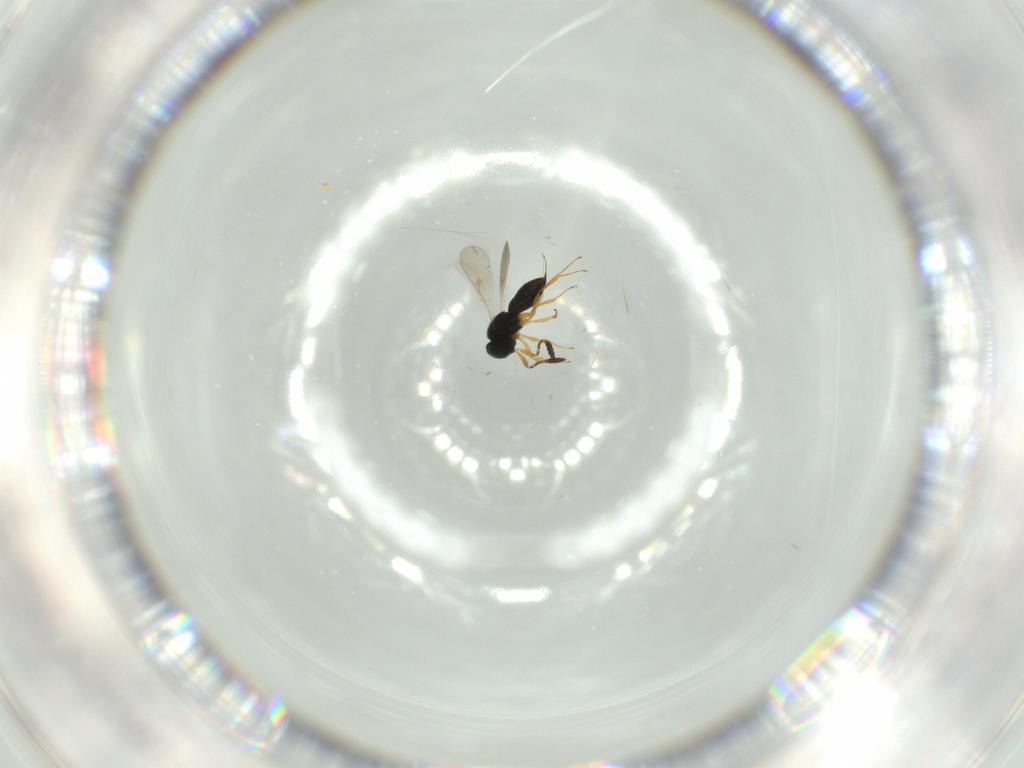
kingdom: Animalia
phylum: Arthropoda
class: Insecta
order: Hymenoptera
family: Scelionidae
